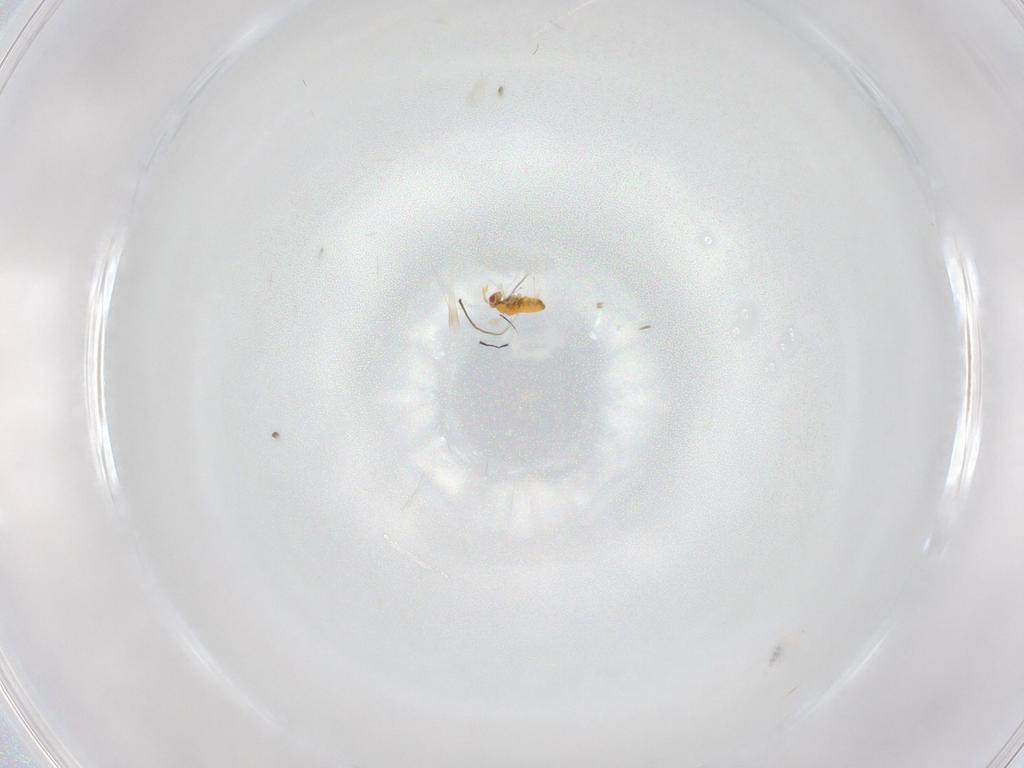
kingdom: Animalia
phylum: Arthropoda
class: Insecta
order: Hymenoptera
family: Trichogrammatidae
